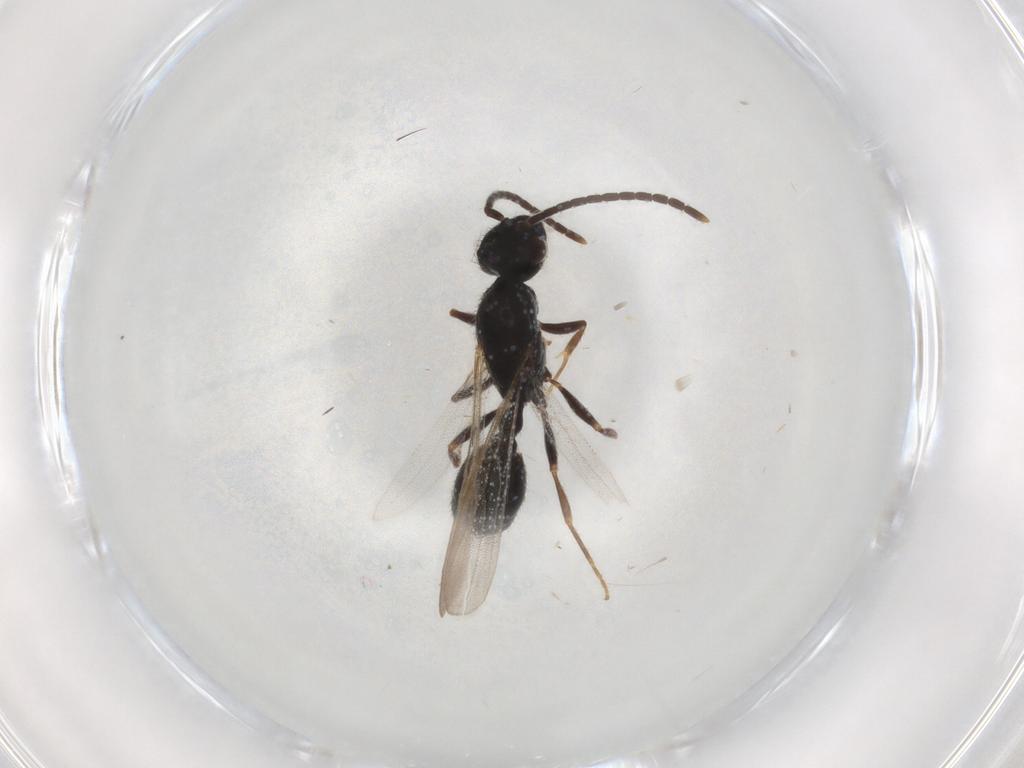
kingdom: Animalia
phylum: Arthropoda
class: Insecta
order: Hymenoptera
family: Formicidae
